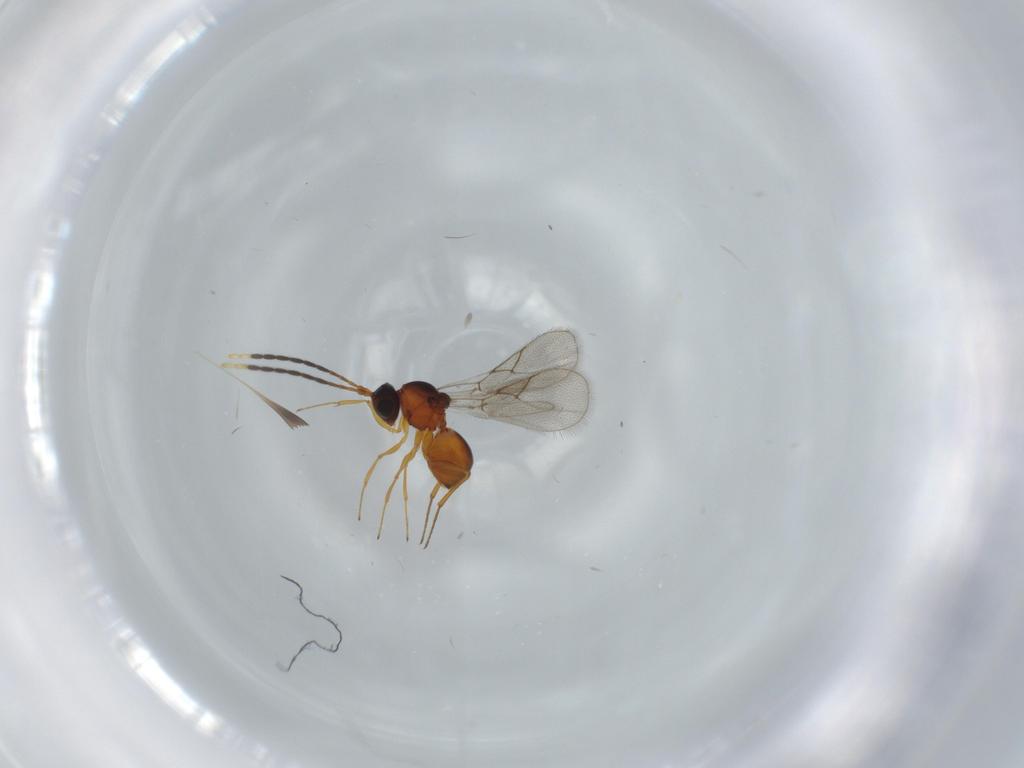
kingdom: Animalia
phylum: Arthropoda
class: Insecta
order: Hymenoptera
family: Figitidae
